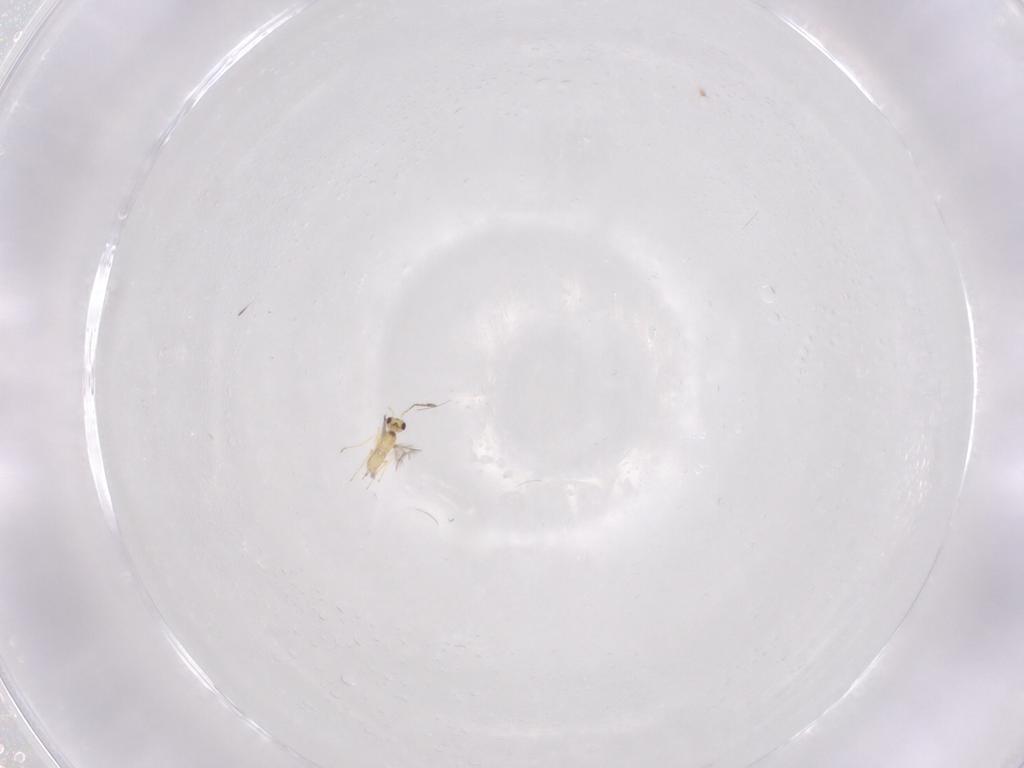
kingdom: Animalia
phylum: Arthropoda
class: Insecta
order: Hymenoptera
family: Mymaridae
